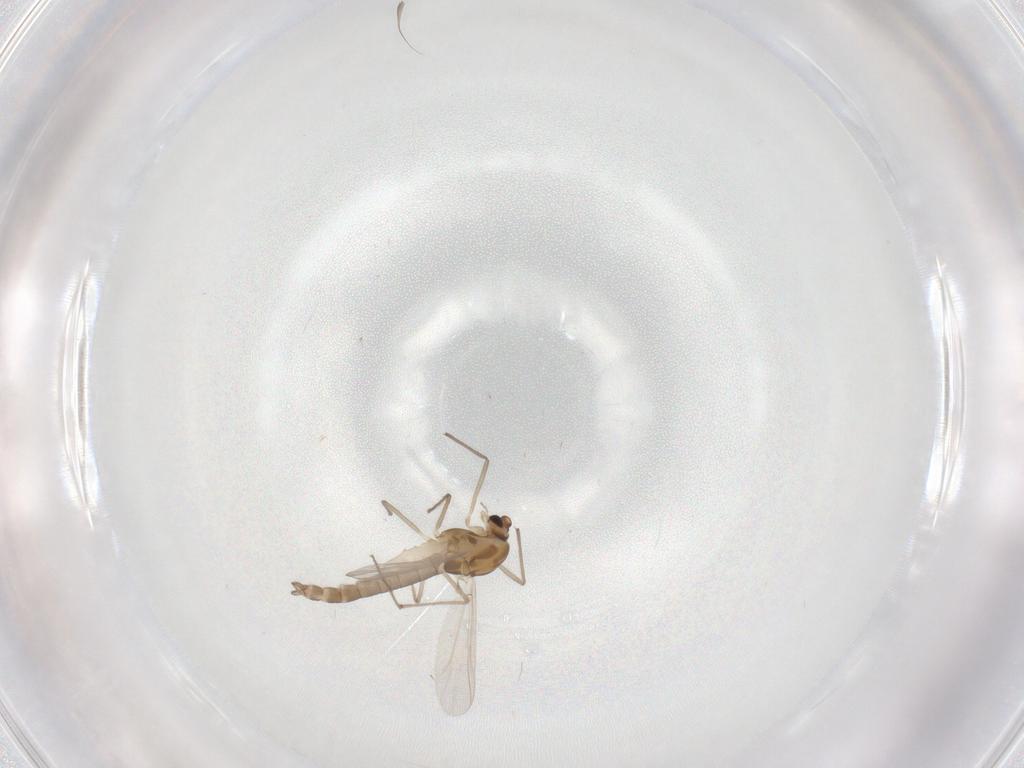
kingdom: Animalia
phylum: Arthropoda
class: Insecta
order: Diptera
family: Chironomidae
